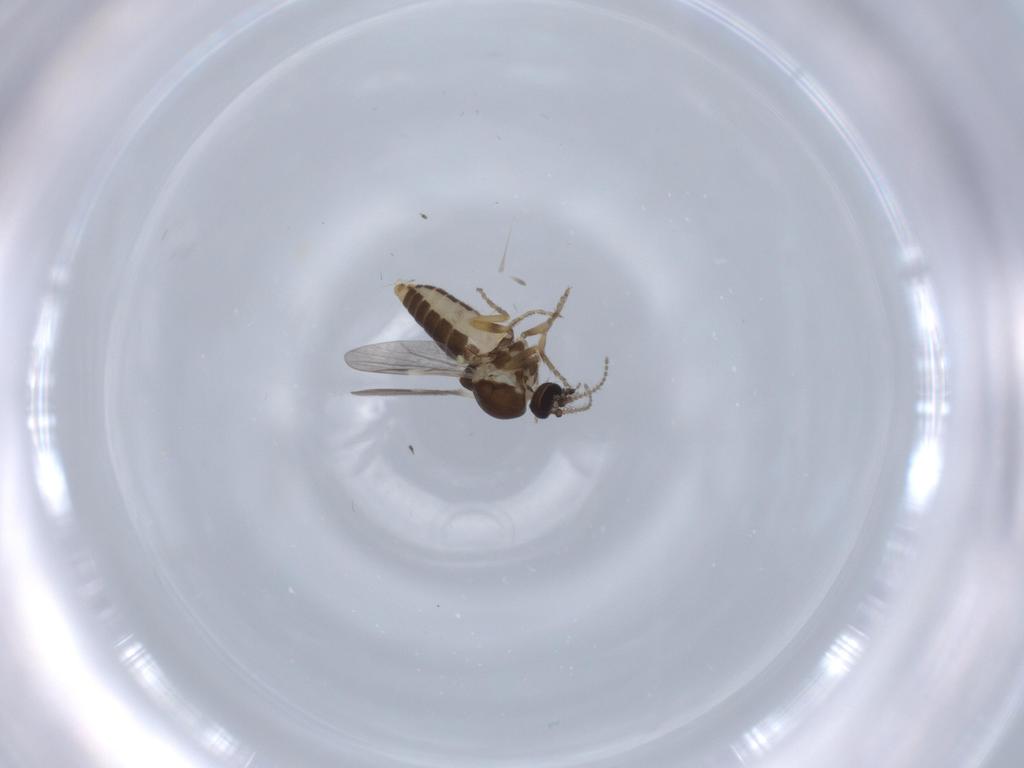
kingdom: Animalia
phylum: Arthropoda
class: Insecta
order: Diptera
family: Ceratopogonidae
